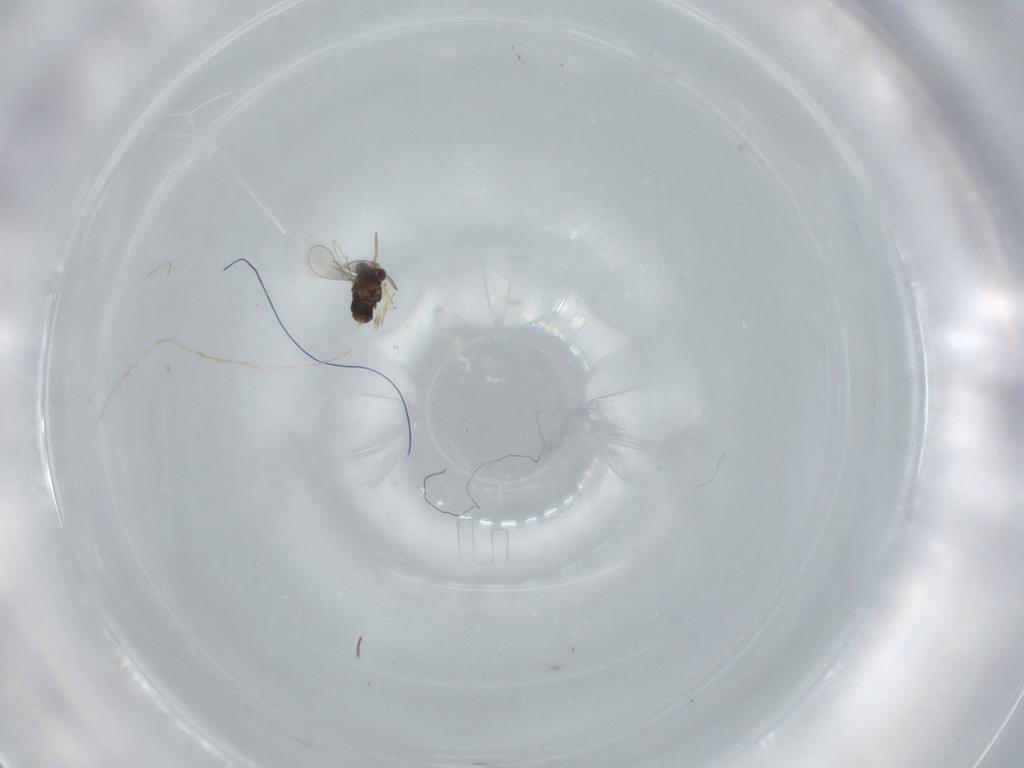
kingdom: Animalia
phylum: Arthropoda
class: Insecta
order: Hymenoptera
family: Aphelinidae
